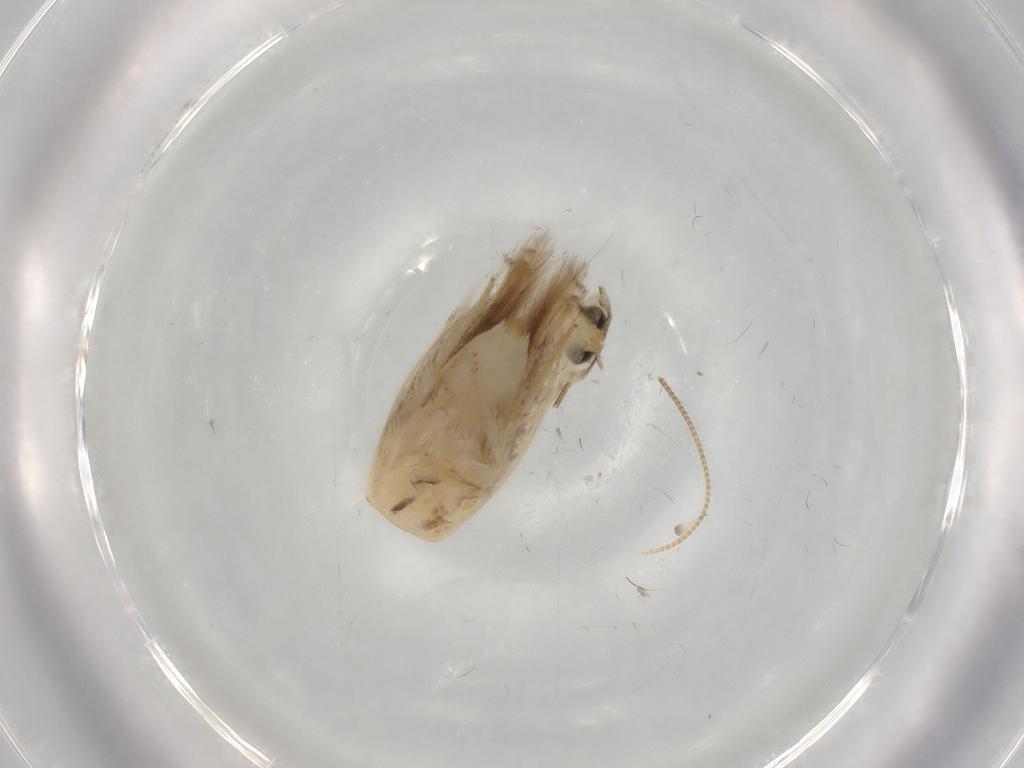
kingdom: Animalia
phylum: Arthropoda
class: Insecta
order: Lepidoptera
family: Opostegidae
